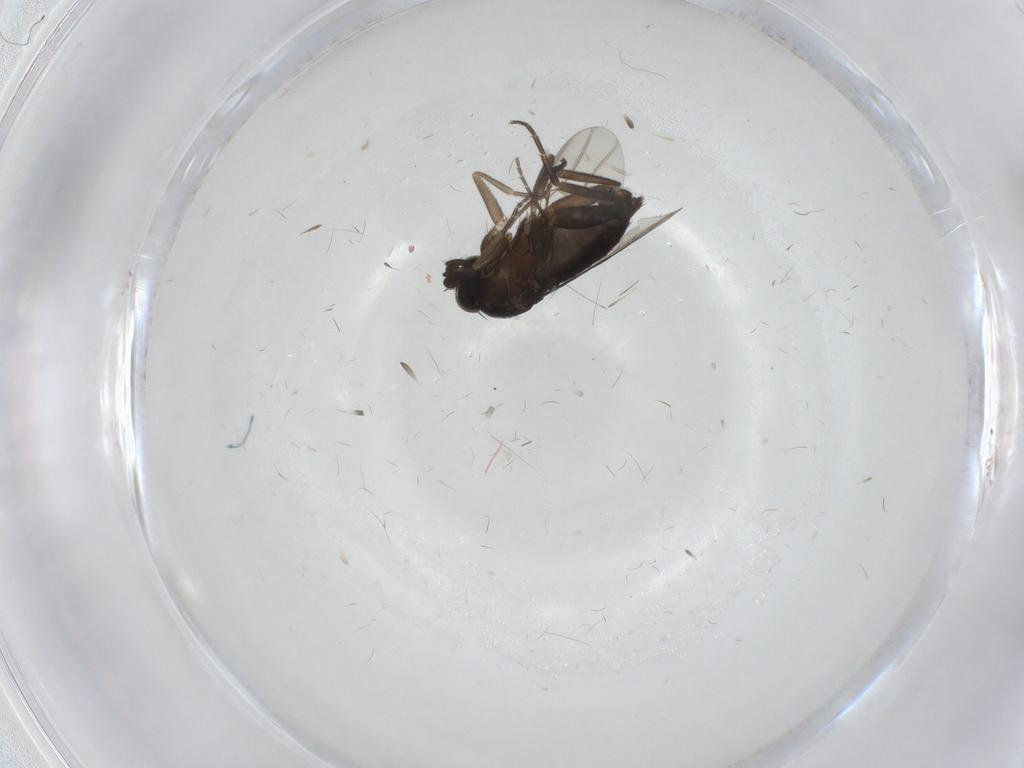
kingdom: Animalia
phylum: Arthropoda
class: Insecta
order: Diptera
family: Phoridae
